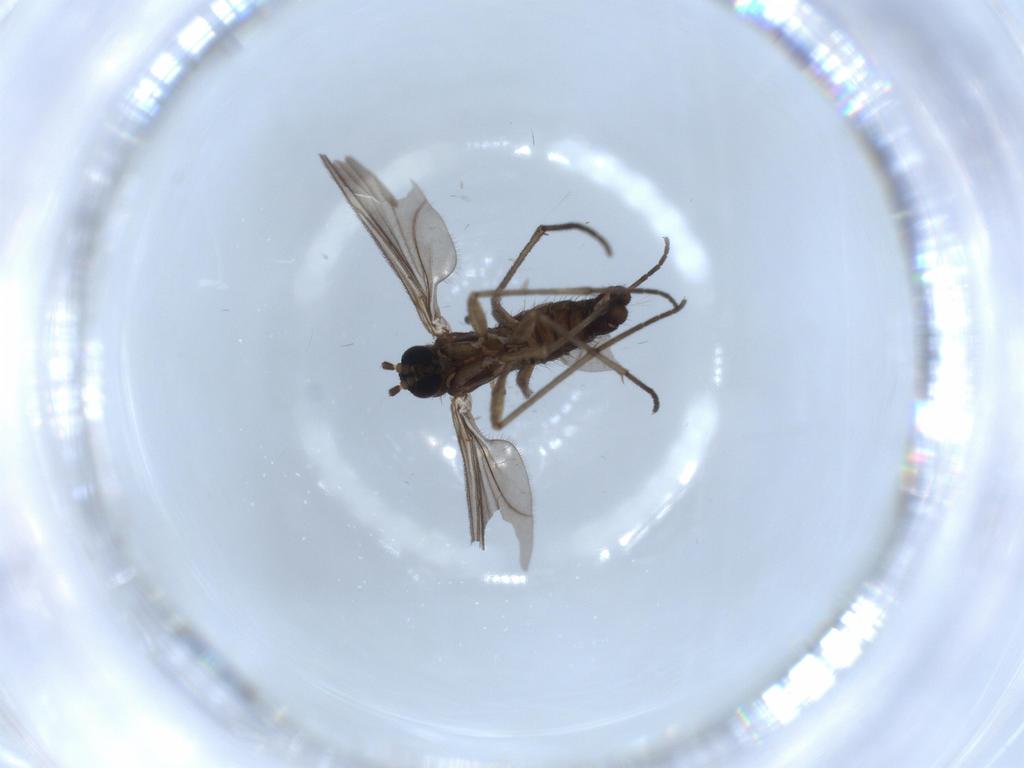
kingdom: Animalia
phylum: Arthropoda
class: Insecta
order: Diptera
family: Sciaridae
